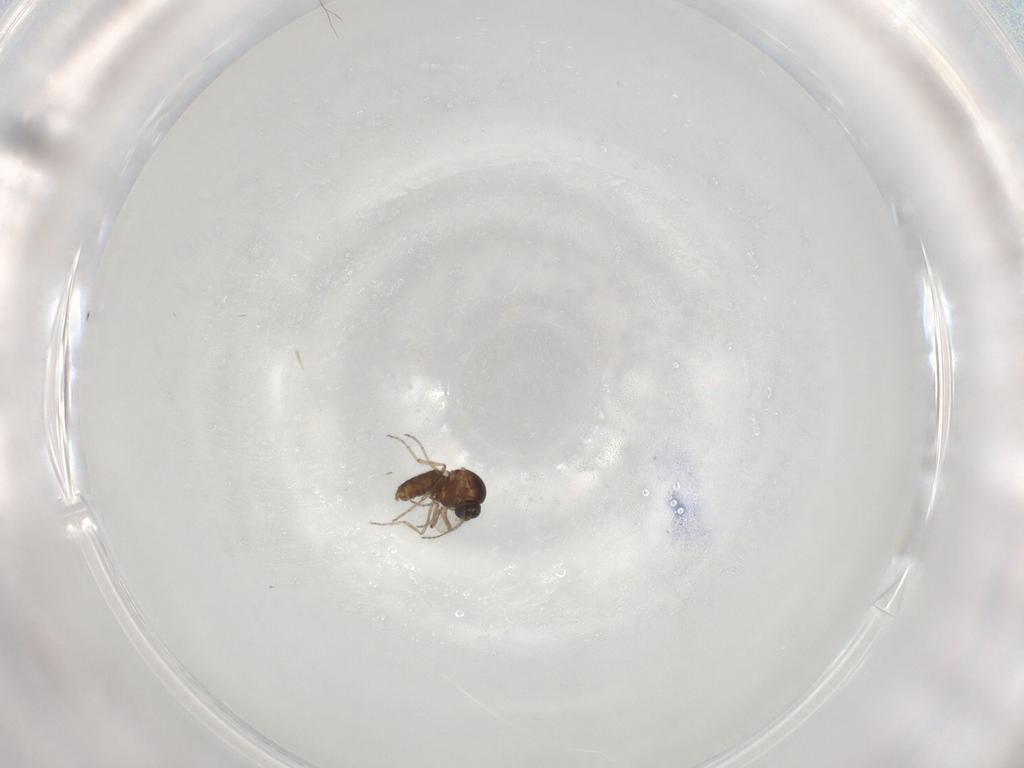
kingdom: Animalia
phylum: Arthropoda
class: Insecta
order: Diptera
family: Ceratopogonidae
